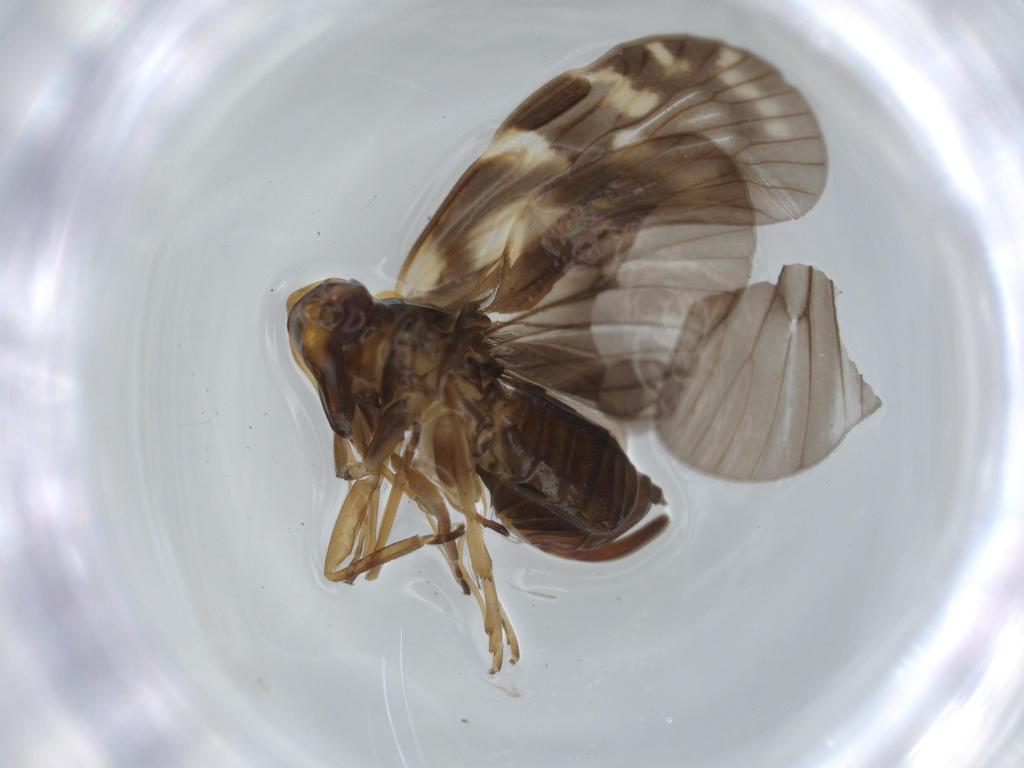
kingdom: Animalia
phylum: Arthropoda
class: Insecta
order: Hemiptera
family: Cixiidae
